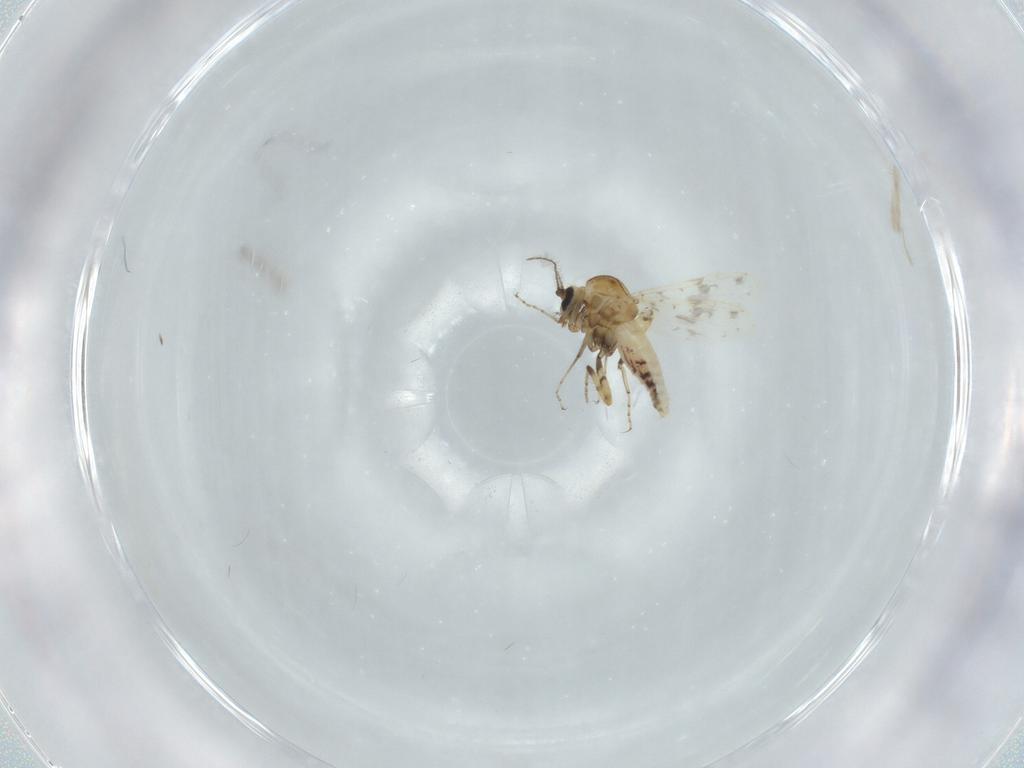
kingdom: Animalia
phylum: Arthropoda
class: Insecta
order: Diptera
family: Ceratopogonidae
